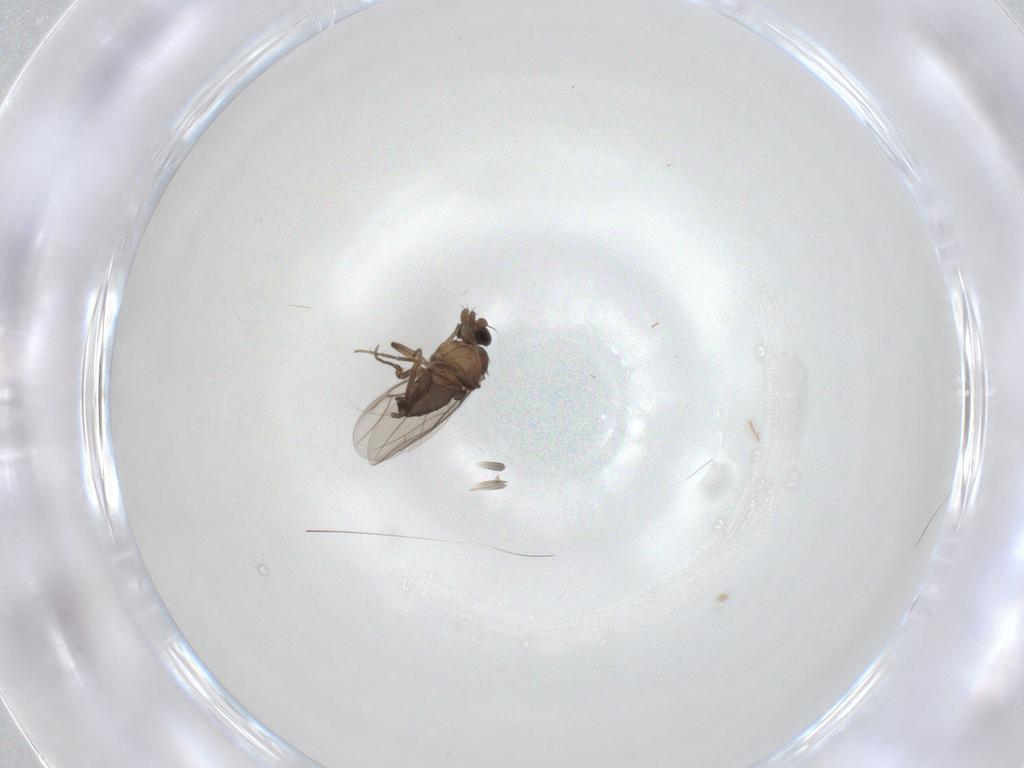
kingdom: Animalia
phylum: Arthropoda
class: Insecta
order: Diptera
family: Phoridae
